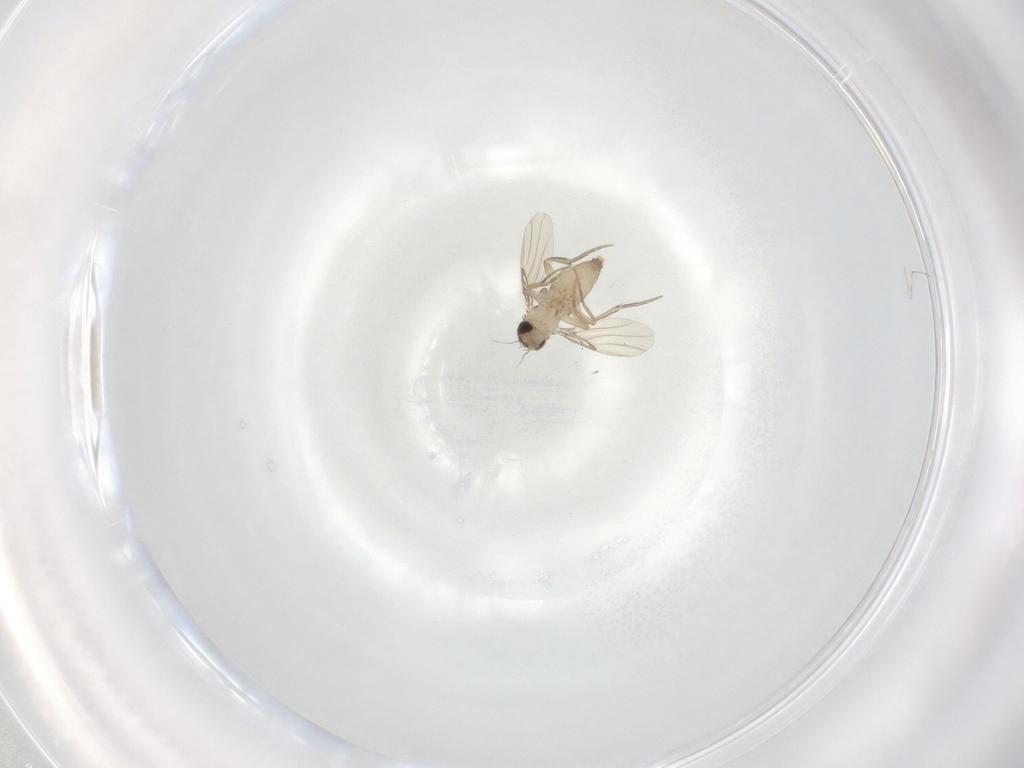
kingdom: Animalia
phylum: Arthropoda
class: Insecta
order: Diptera
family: Phoridae
